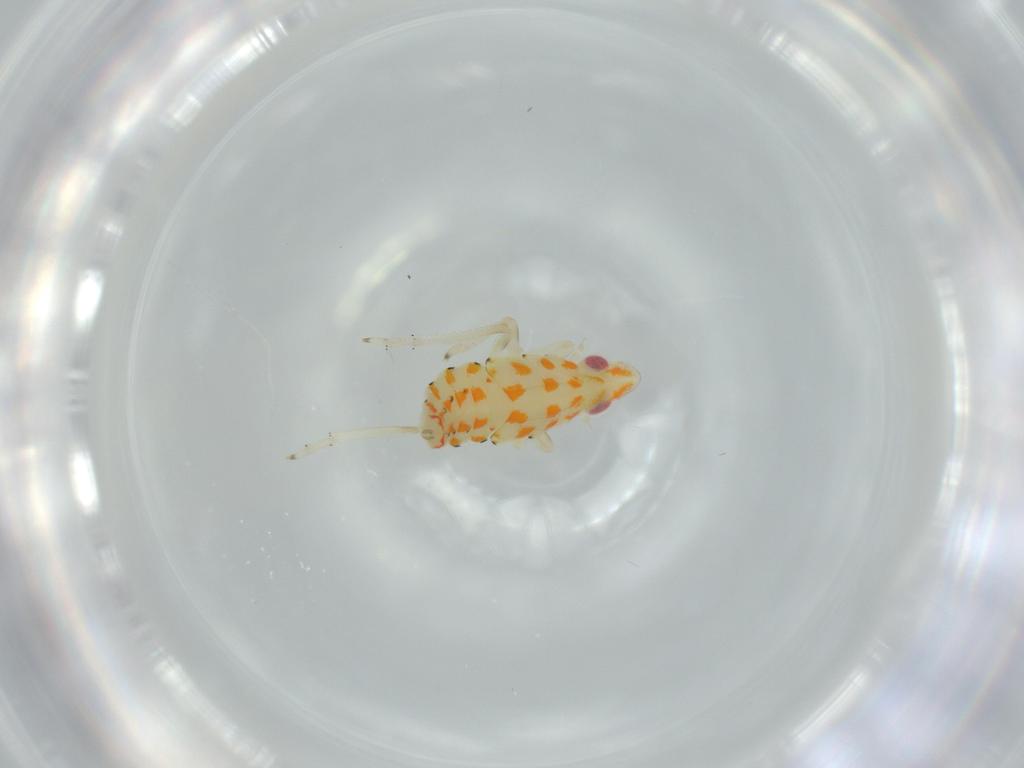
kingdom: Animalia
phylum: Arthropoda
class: Insecta
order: Hemiptera
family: Tropiduchidae
